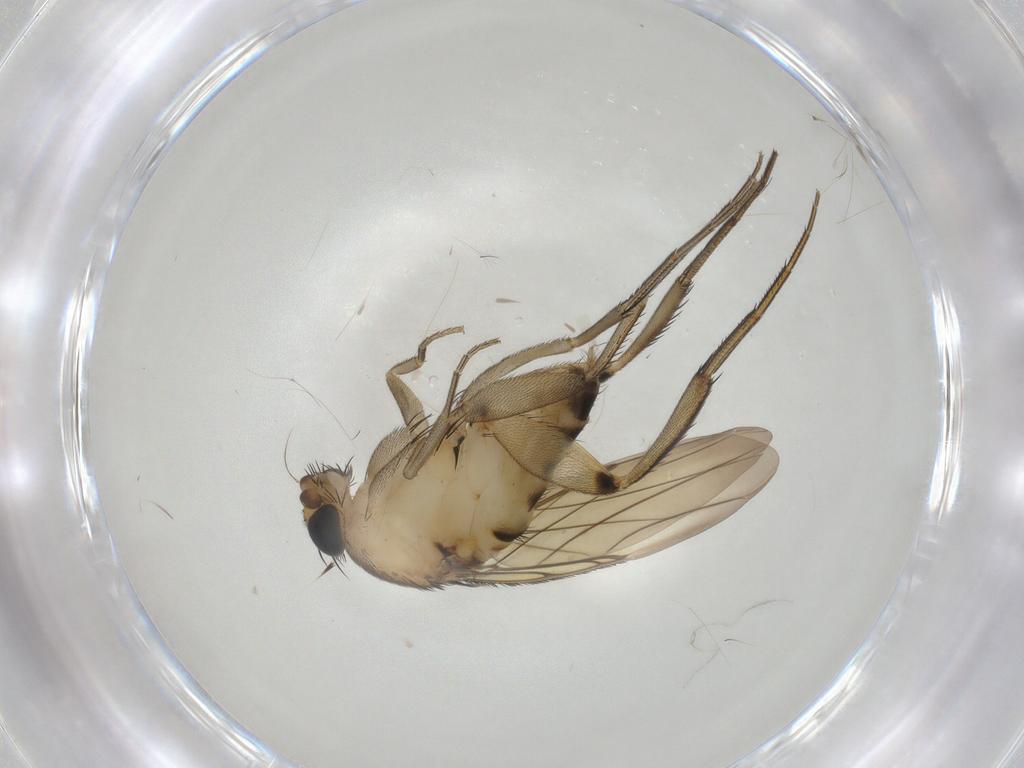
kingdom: Animalia
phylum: Arthropoda
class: Insecta
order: Diptera
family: Phoridae
